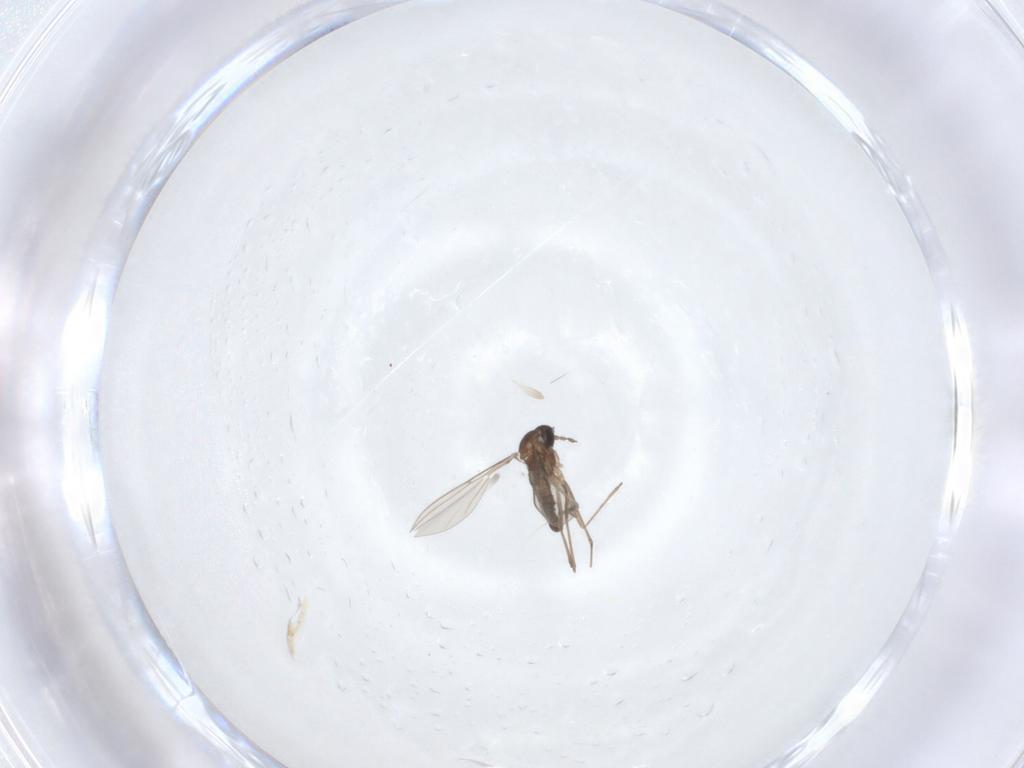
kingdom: Animalia
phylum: Arthropoda
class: Insecta
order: Diptera
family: Cecidomyiidae
